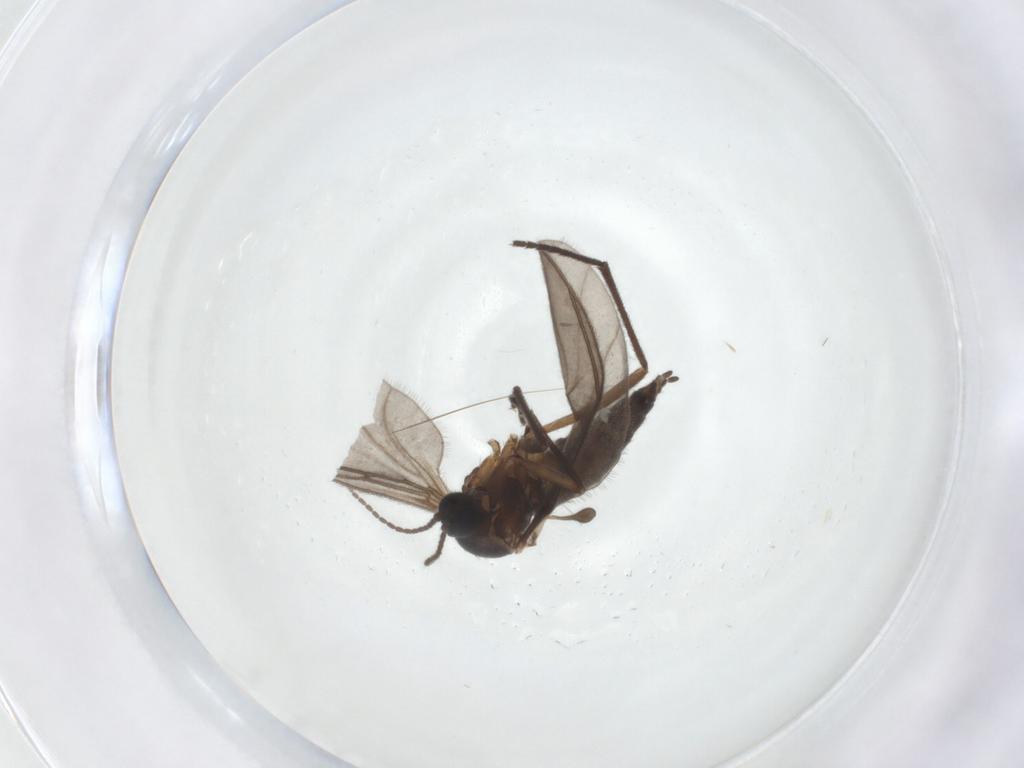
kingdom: Animalia
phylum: Arthropoda
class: Insecta
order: Diptera
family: Sciaridae
